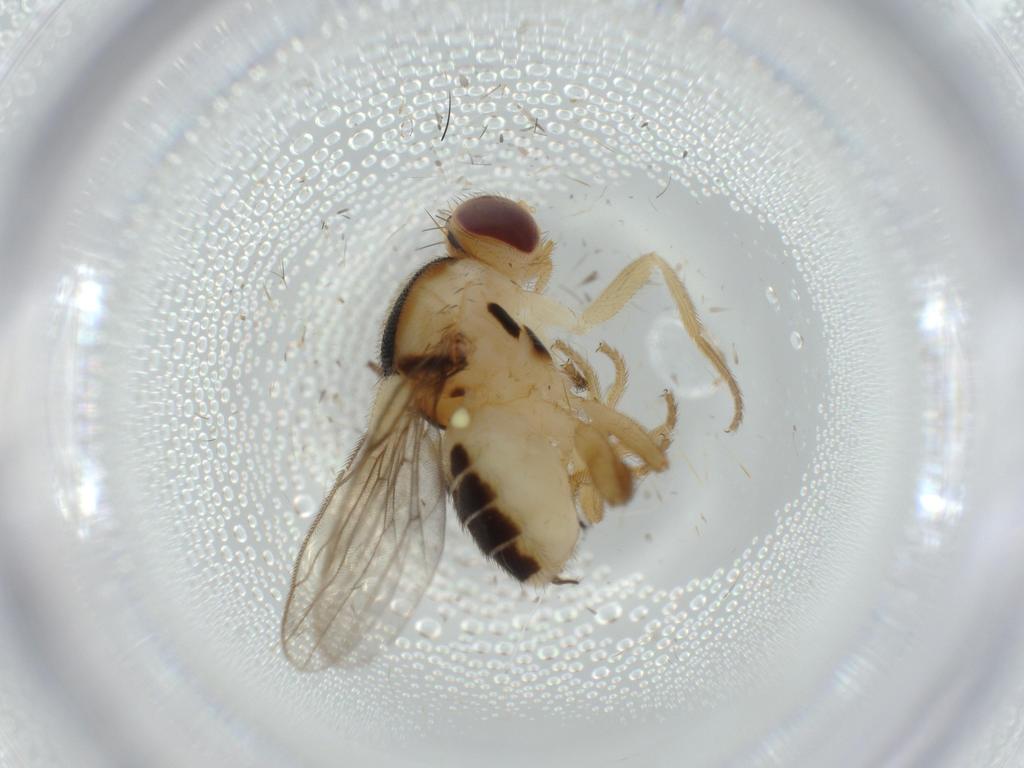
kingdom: Animalia
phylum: Arthropoda
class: Insecta
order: Diptera
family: Chloropidae
